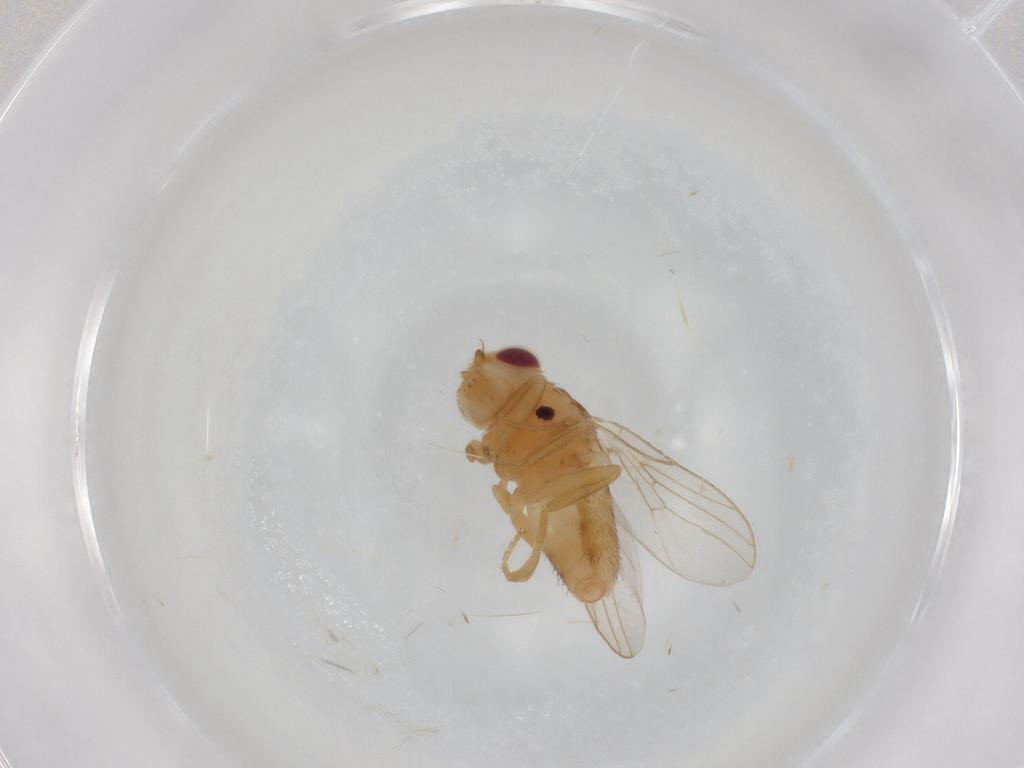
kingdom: Animalia
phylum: Arthropoda
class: Insecta
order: Diptera
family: Chloropidae
